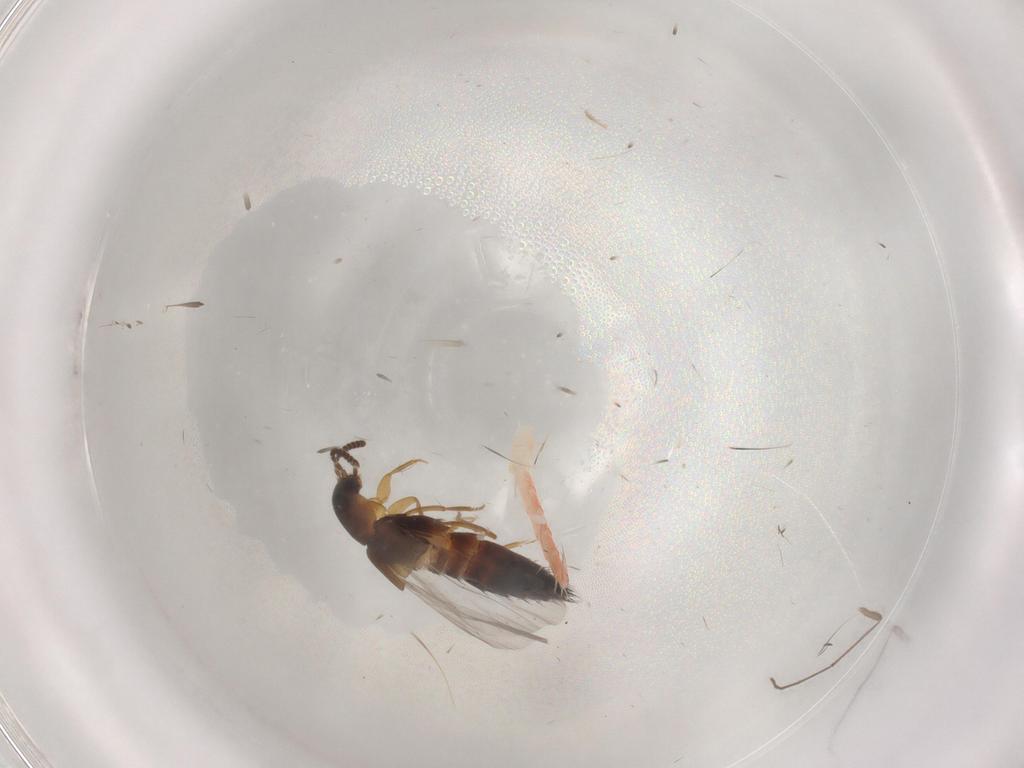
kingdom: Animalia
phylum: Arthropoda
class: Insecta
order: Coleoptera
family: Staphylinidae
